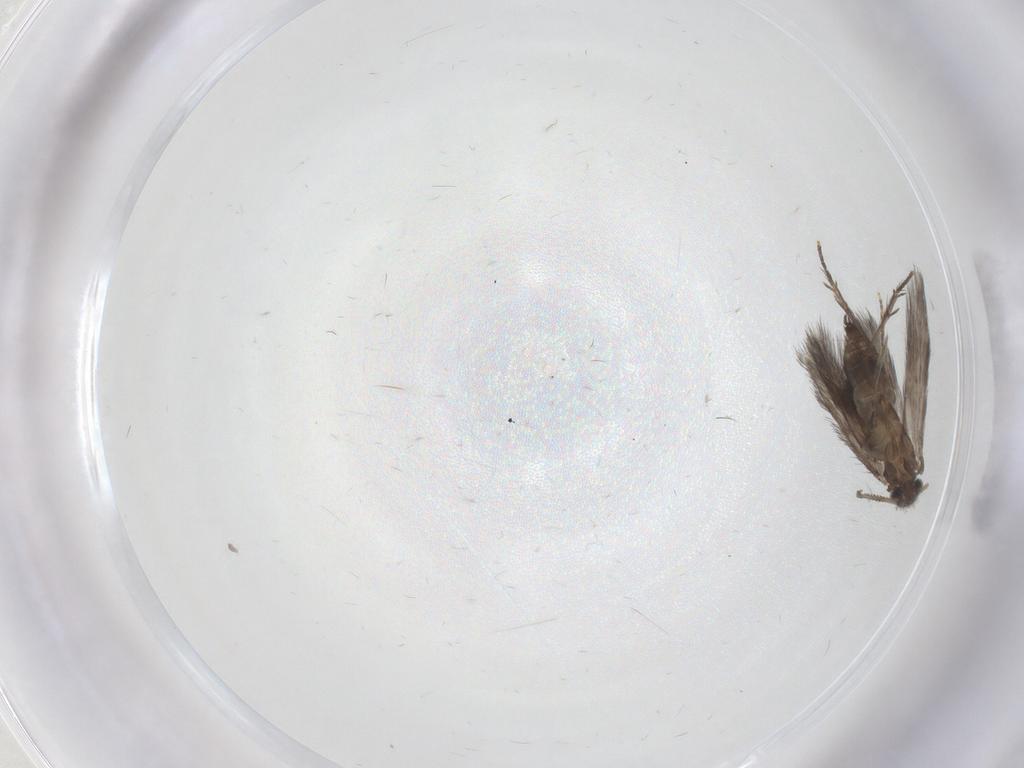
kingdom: Animalia
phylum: Arthropoda
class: Insecta
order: Trichoptera
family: Hydroptilidae
